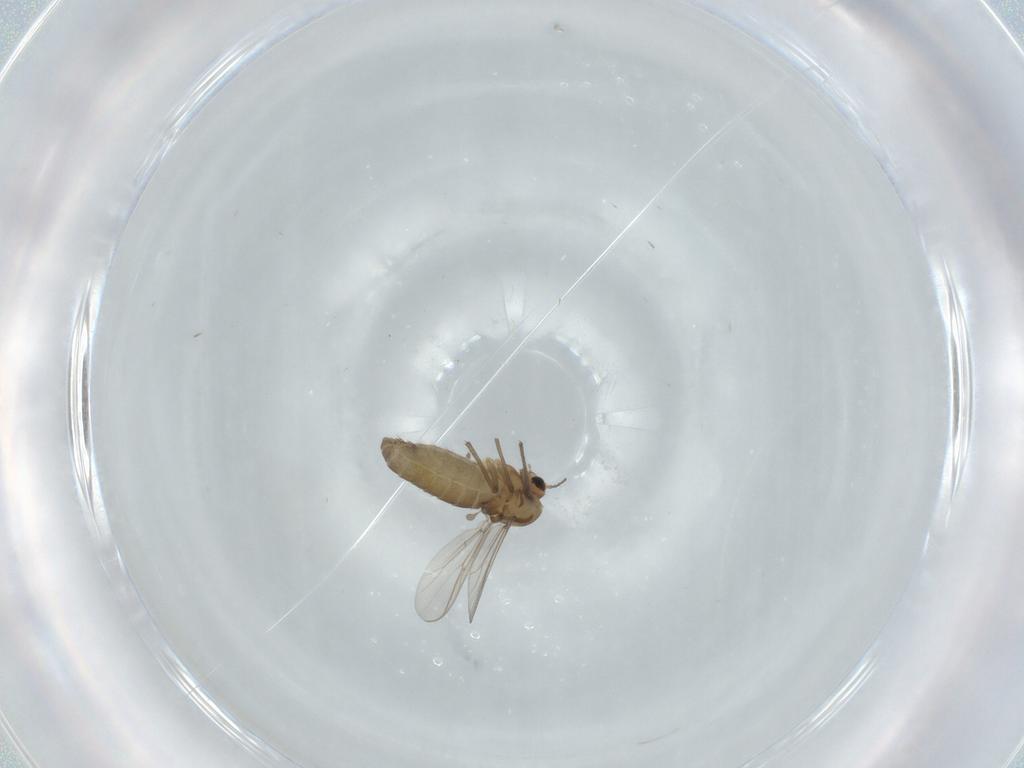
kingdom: Animalia
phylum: Arthropoda
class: Insecta
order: Diptera
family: Chironomidae
